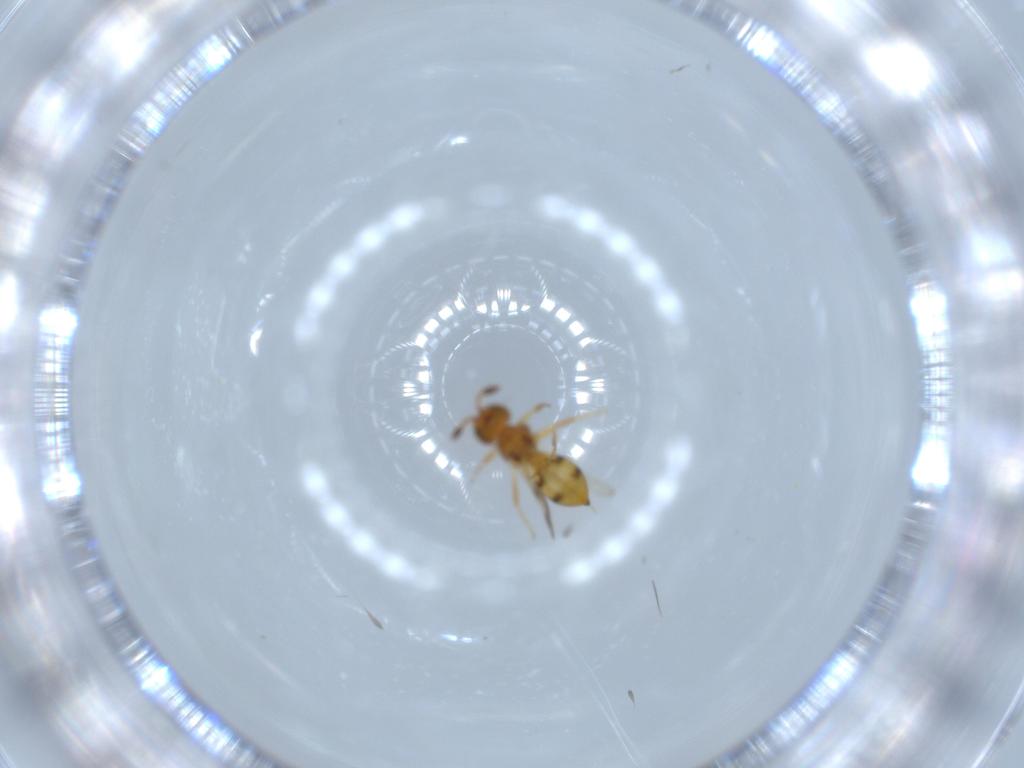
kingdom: Animalia
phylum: Arthropoda
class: Insecta
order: Hymenoptera
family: Scelionidae
